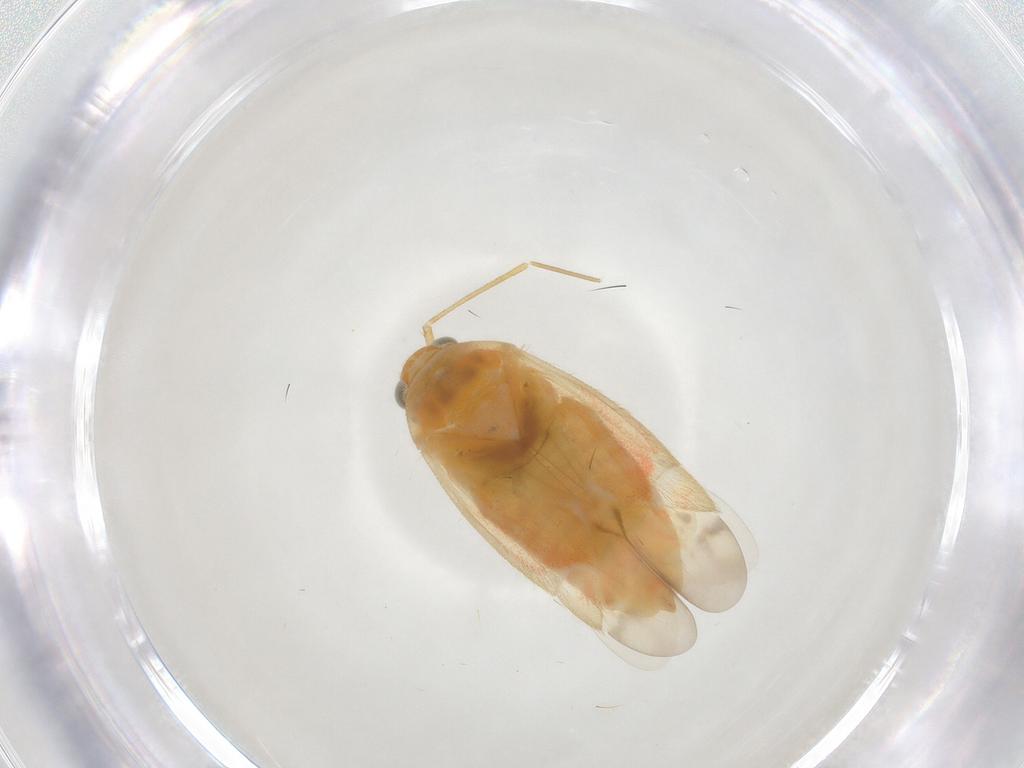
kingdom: Animalia
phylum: Arthropoda
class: Insecta
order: Hemiptera
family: Miridae
